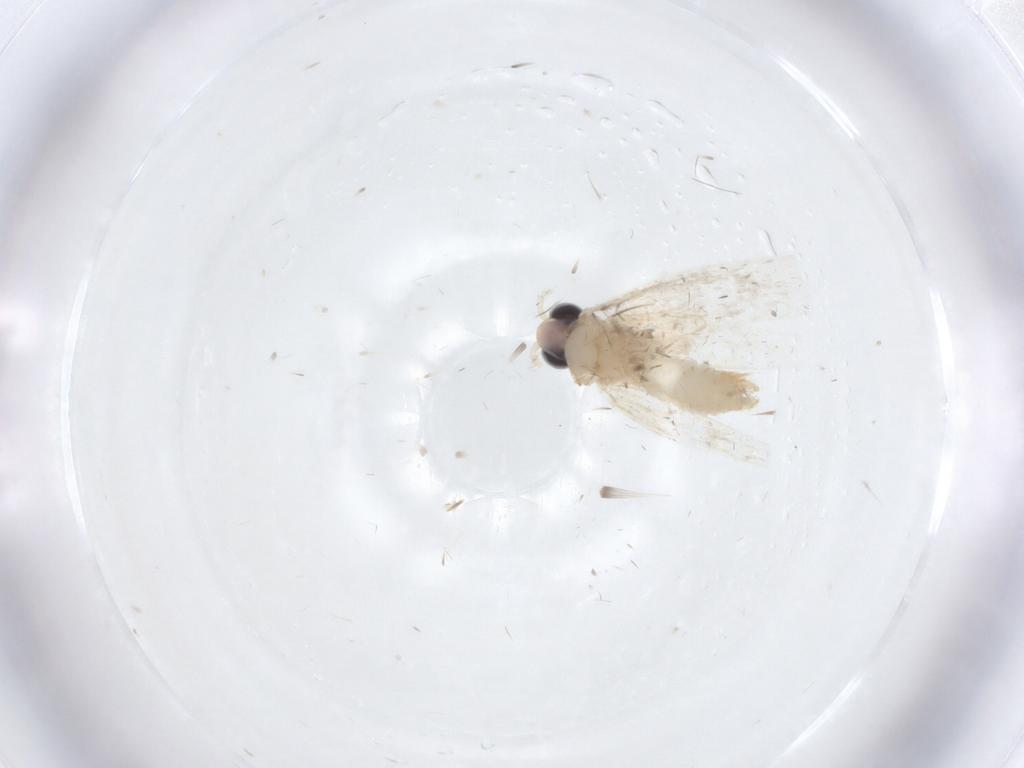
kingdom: Animalia
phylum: Arthropoda
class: Insecta
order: Lepidoptera
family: Psychidae
